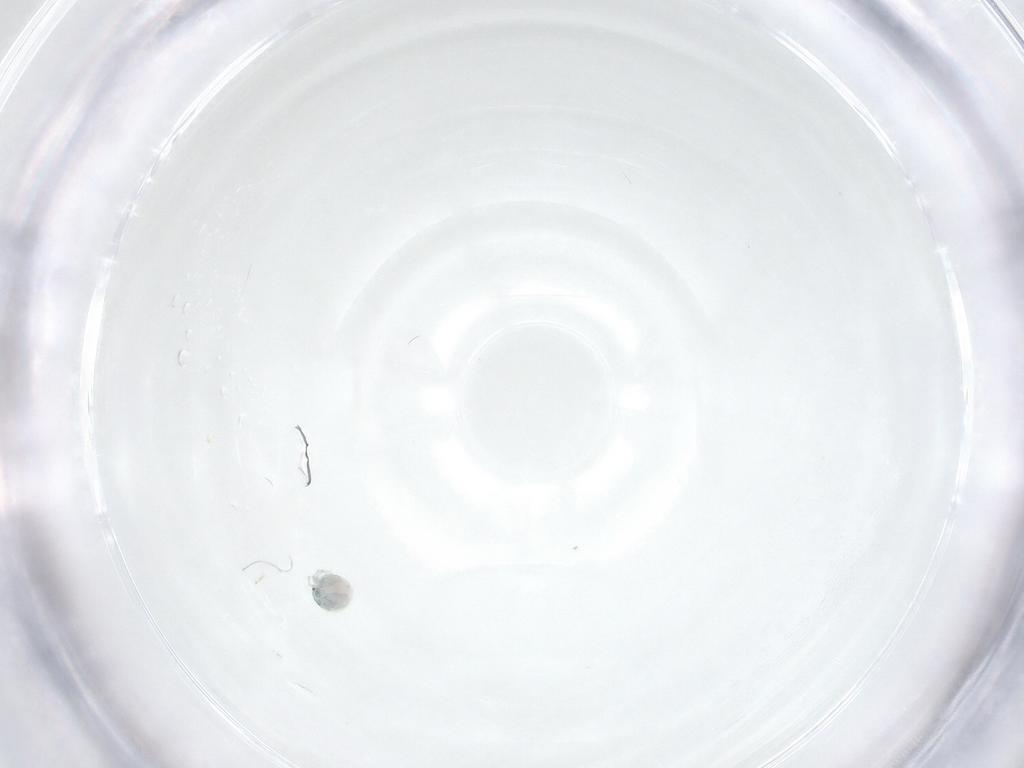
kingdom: Animalia
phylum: Arthropoda
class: Arachnida
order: Trombidiformes
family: Arrenuridae
